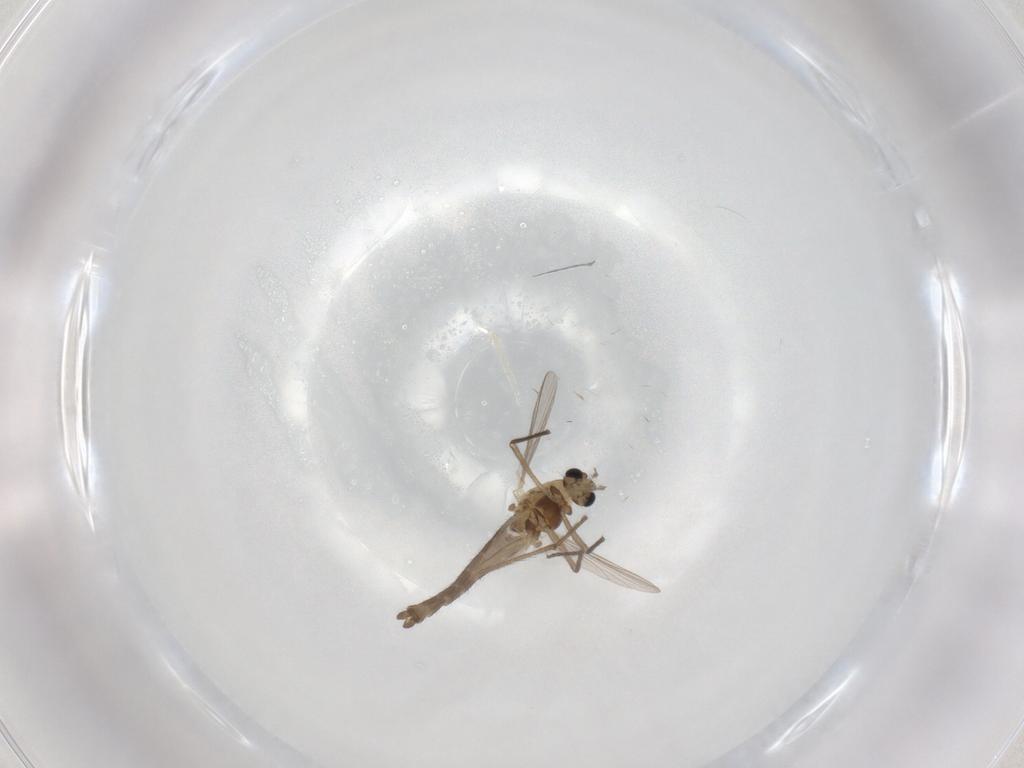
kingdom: Animalia
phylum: Arthropoda
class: Insecta
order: Diptera
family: Chironomidae
